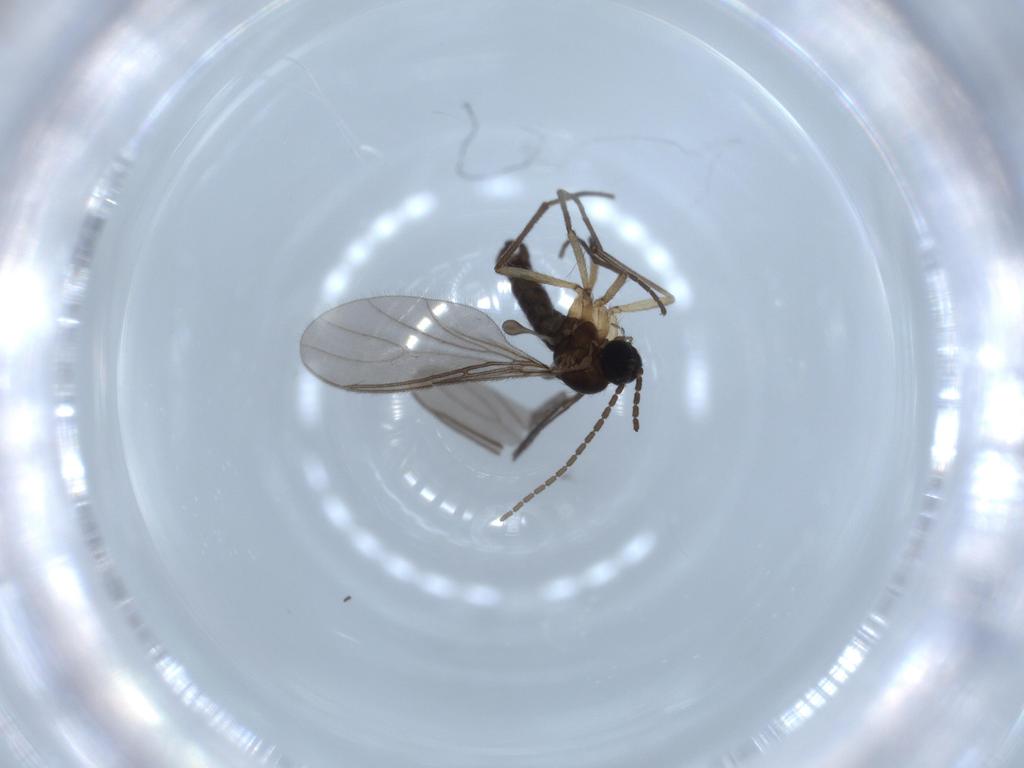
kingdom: Animalia
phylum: Arthropoda
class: Insecta
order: Diptera
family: Sciaridae
